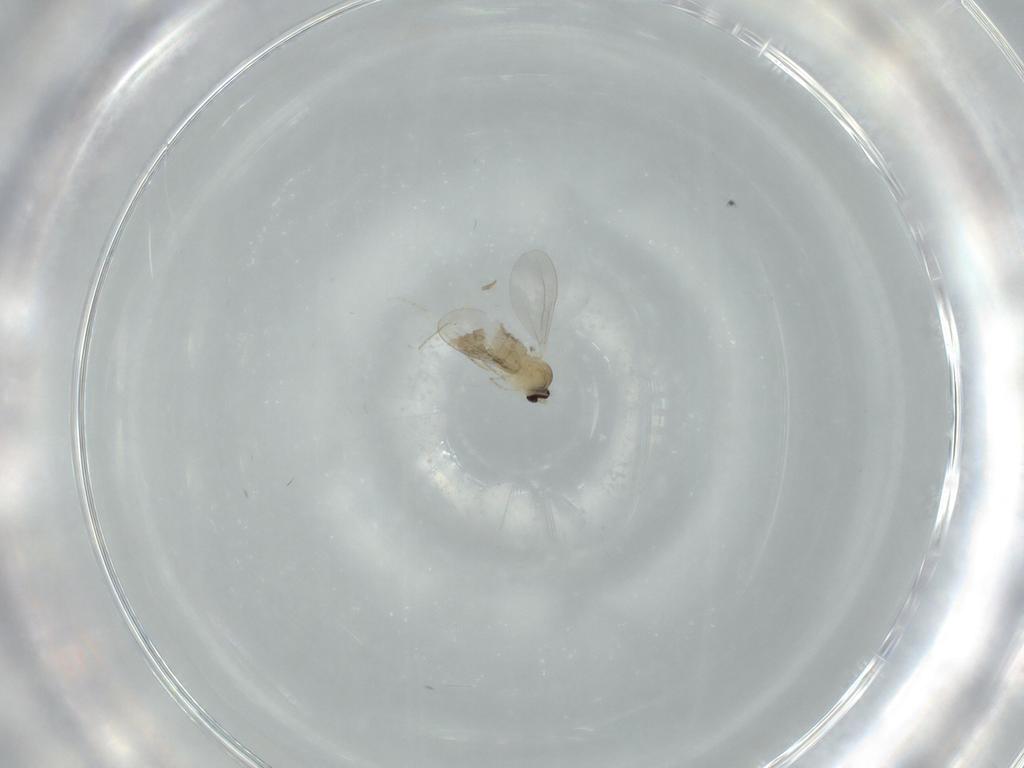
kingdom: Animalia
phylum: Arthropoda
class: Insecta
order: Diptera
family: Cecidomyiidae
